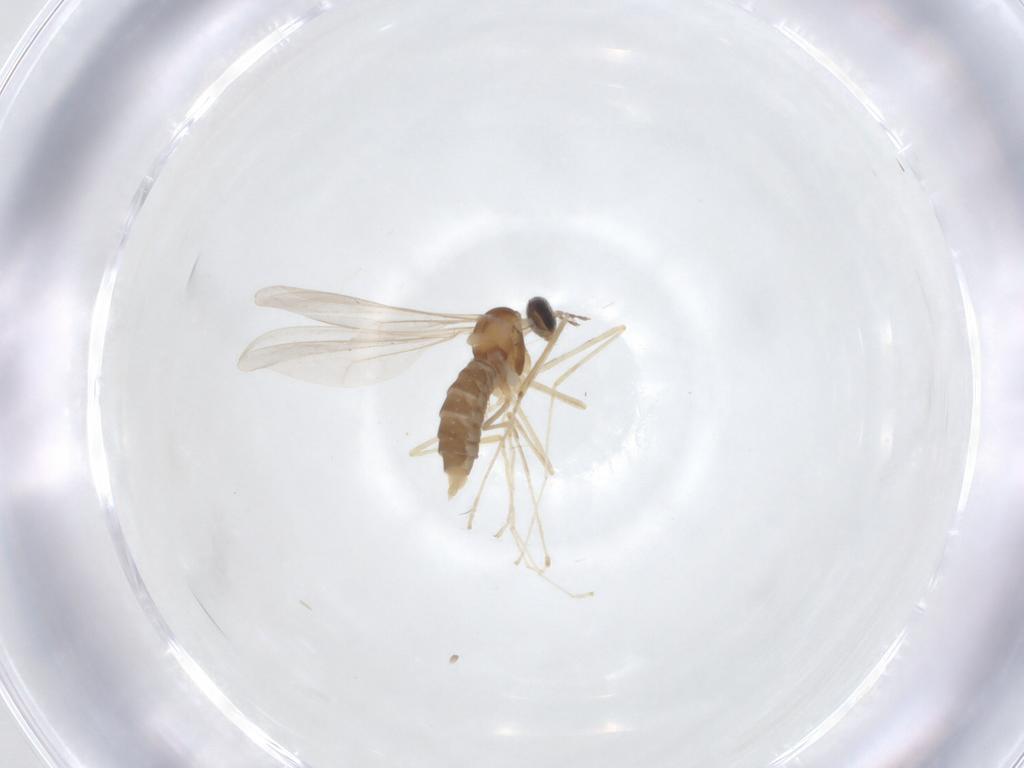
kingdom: Animalia
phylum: Arthropoda
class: Insecta
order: Diptera
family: Cecidomyiidae
